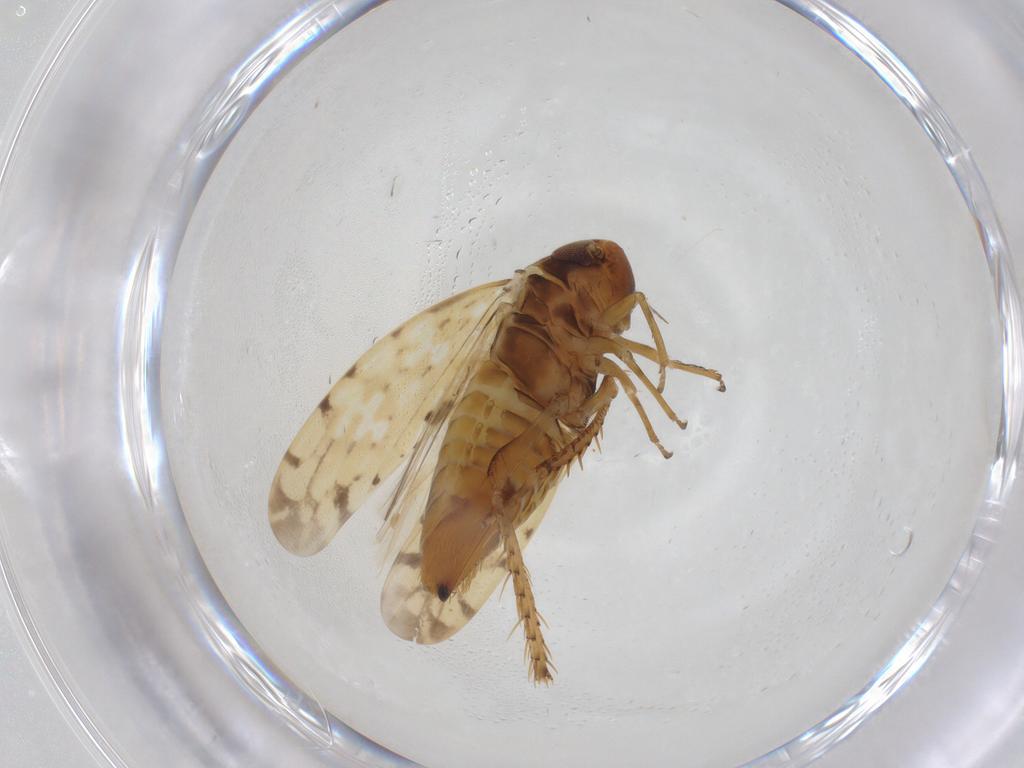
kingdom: Animalia
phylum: Arthropoda
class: Insecta
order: Hemiptera
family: Cicadellidae
